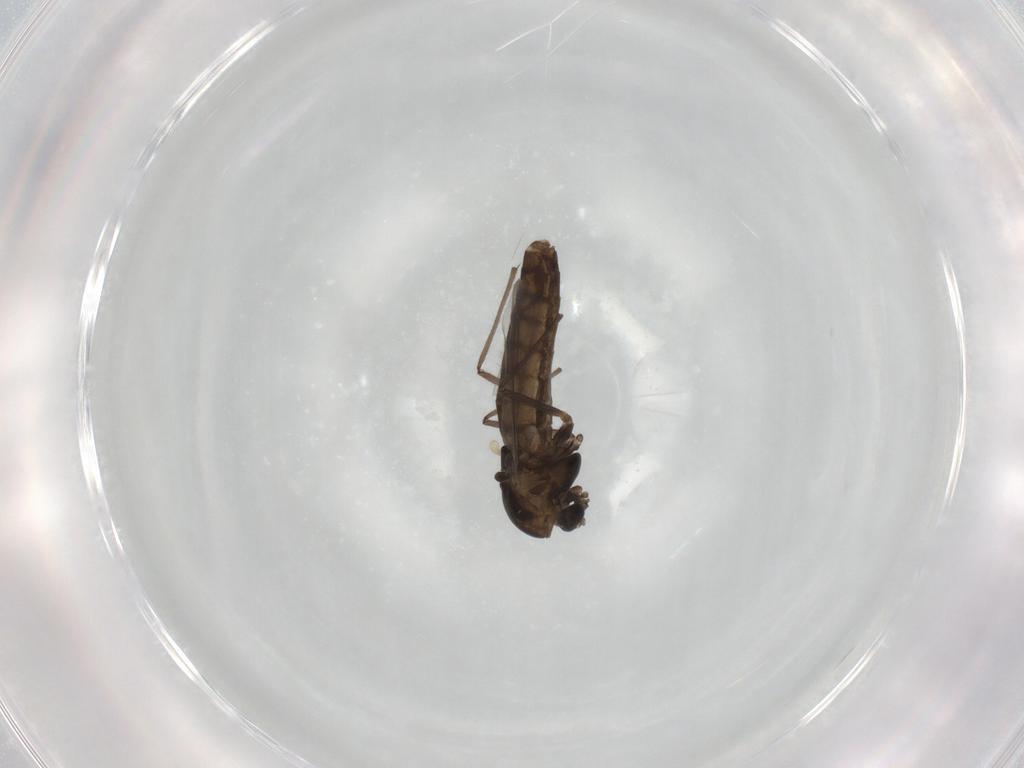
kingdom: Animalia
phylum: Arthropoda
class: Insecta
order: Diptera
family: Chironomidae
